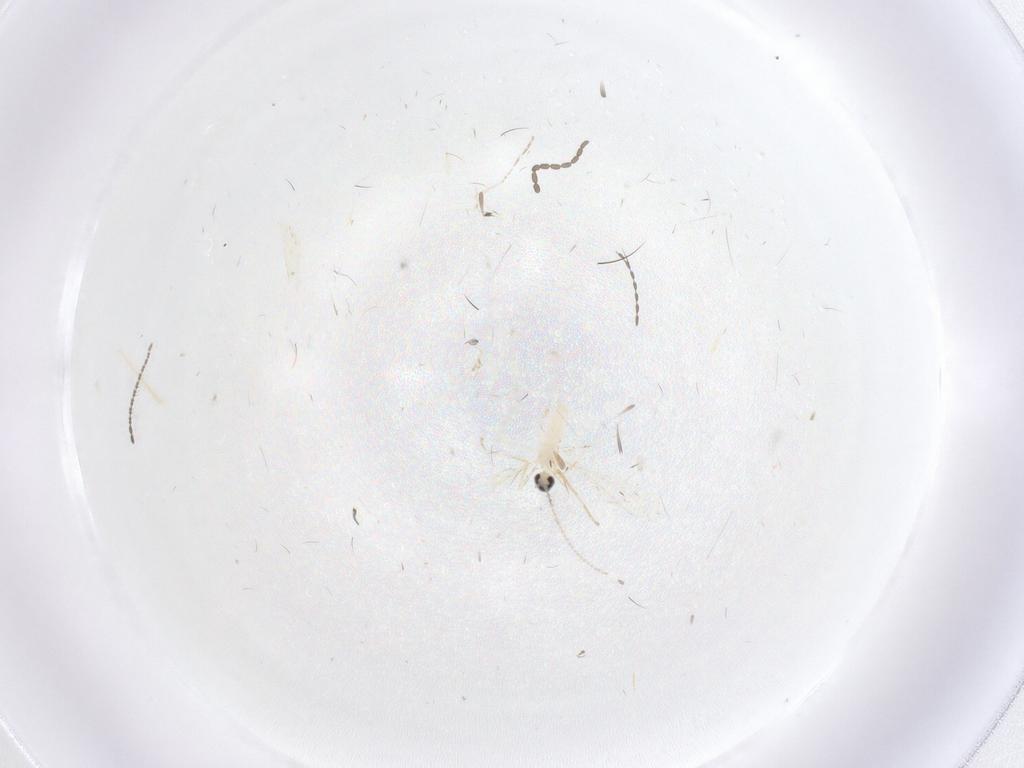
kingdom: Animalia
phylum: Arthropoda
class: Insecta
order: Diptera
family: Cecidomyiidae
